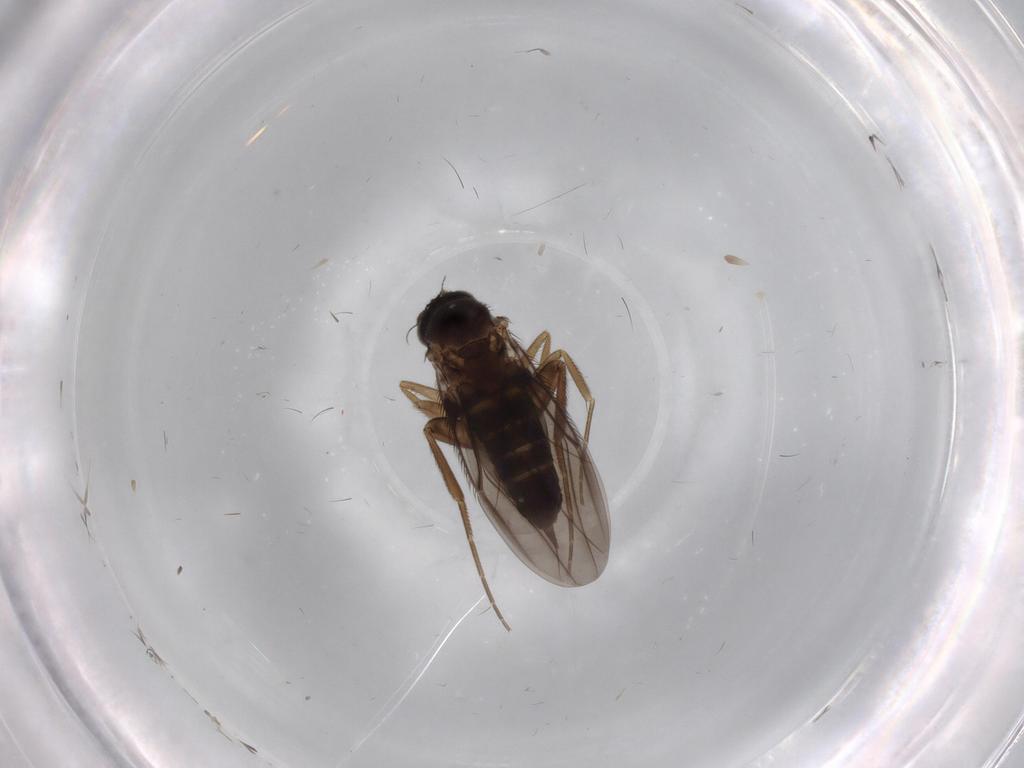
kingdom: Animalia
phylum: Arthropoda
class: Insecta
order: Diptera
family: Phoridae
